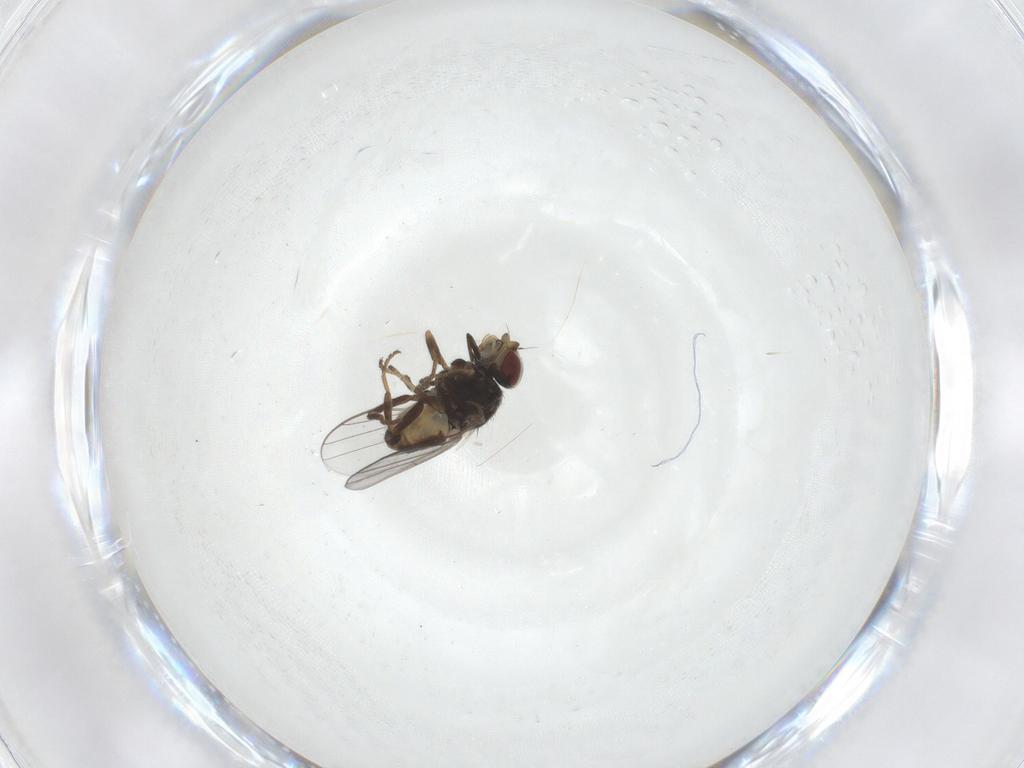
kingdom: Animalia
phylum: Arthropoda
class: Insecta
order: Diptera
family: Chloropidae
